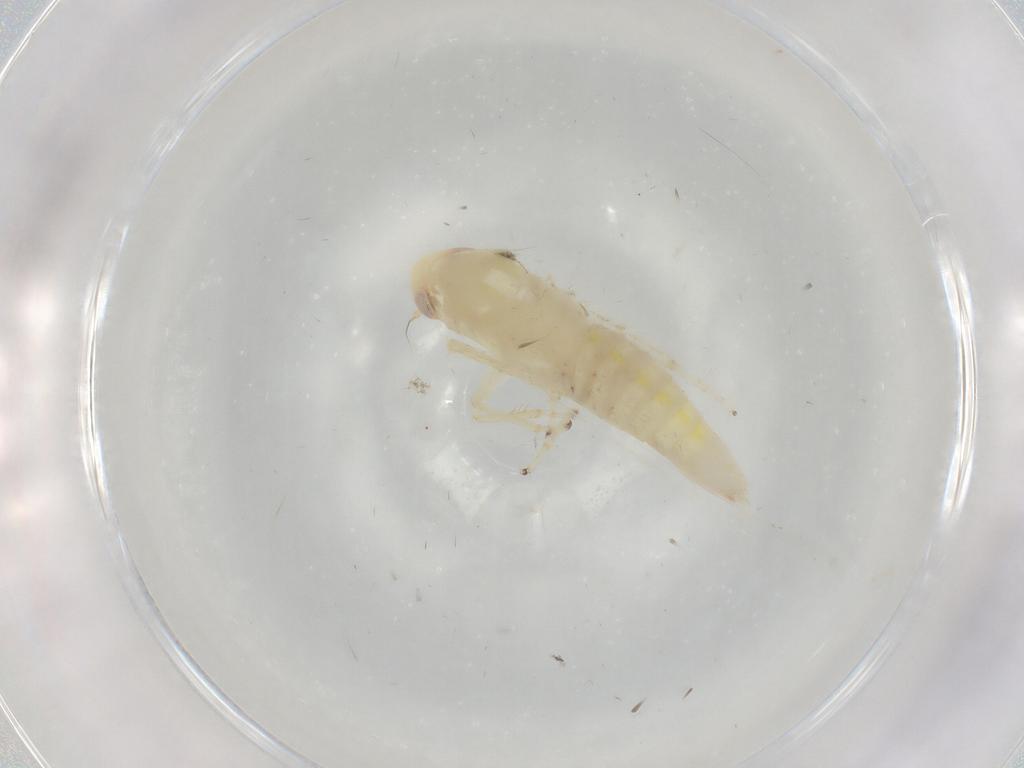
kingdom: Animalia
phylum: Arthropoda
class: Insecta
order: Hemiptera
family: Cicadellidae
